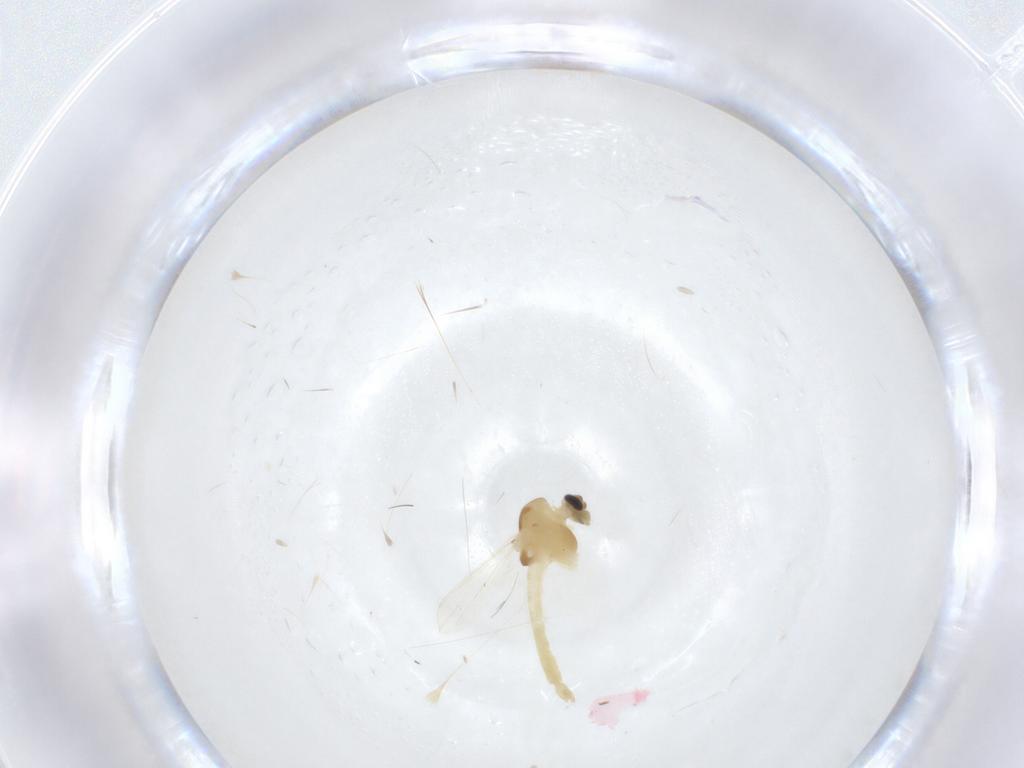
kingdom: Animalia
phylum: Arthropoda
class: Insecta
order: Diptera
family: Chironomidae
